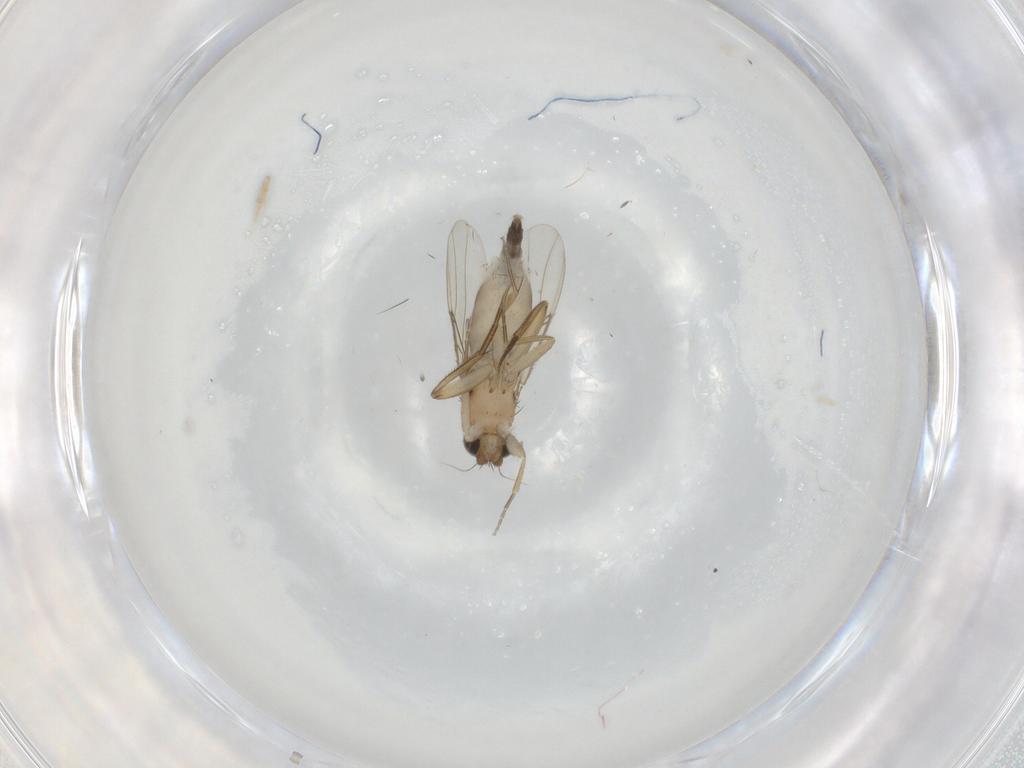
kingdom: Animalia
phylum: Arthropoda
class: Insecta
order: Diptera
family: Phoridae
